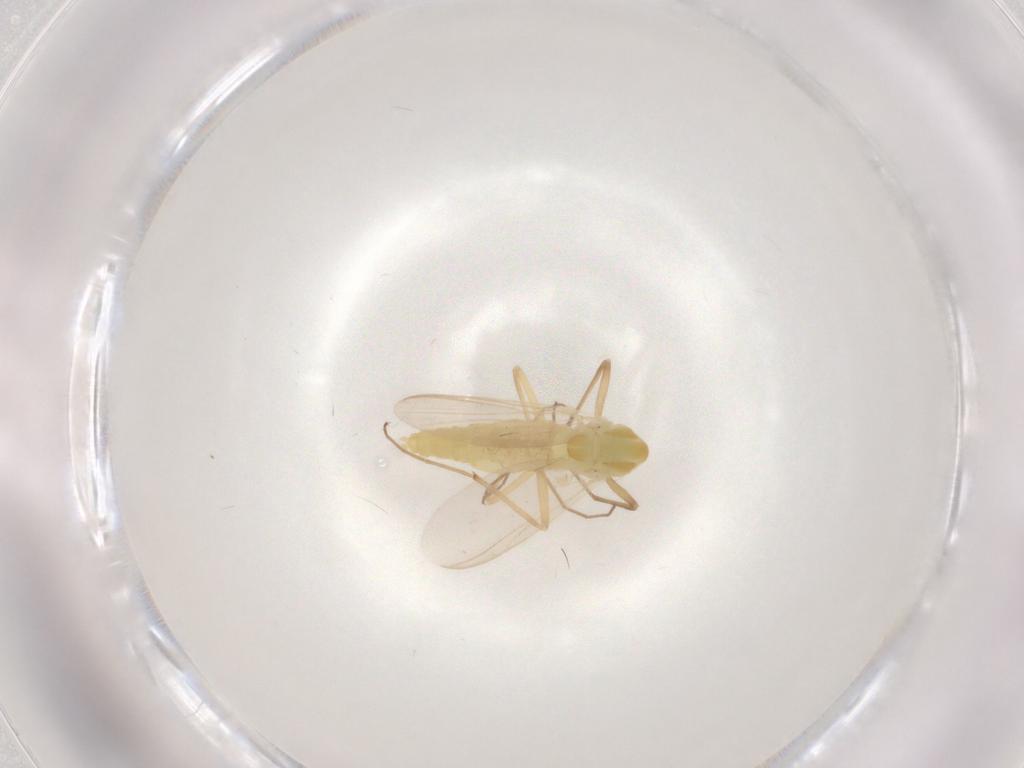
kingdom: Animalia
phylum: Arthropoda
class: Insecta
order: Diptera
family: Chironomidae
